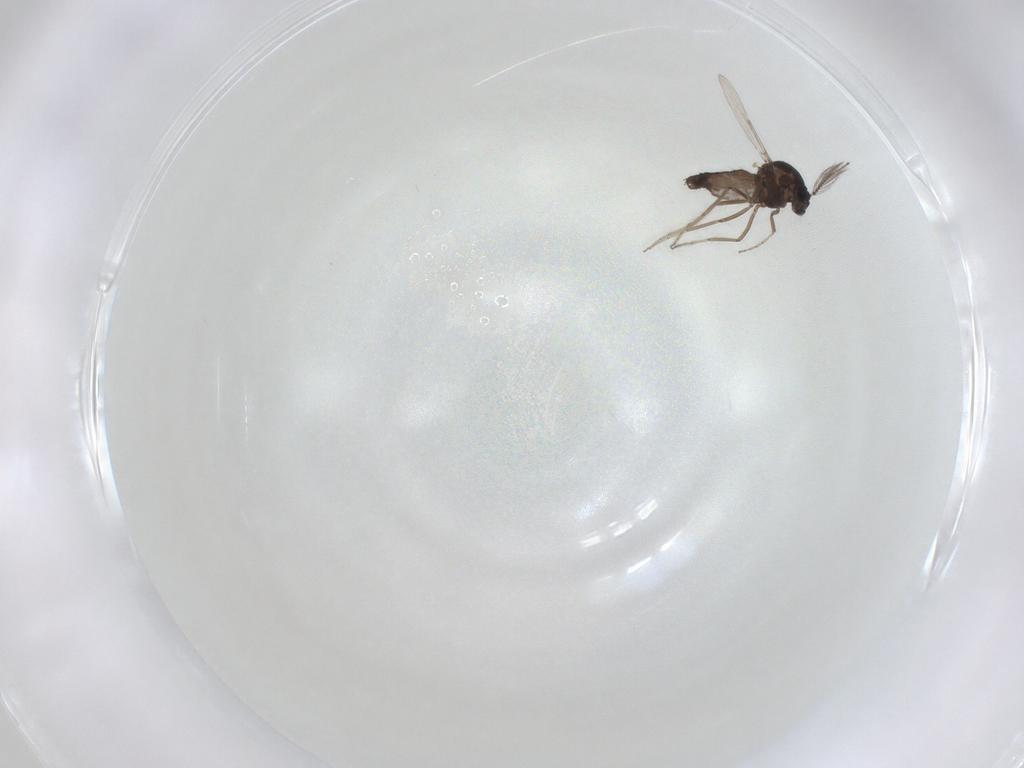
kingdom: Animalia
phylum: Arthropoda
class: Insecta
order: Diptera
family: Ceratopogonidae
